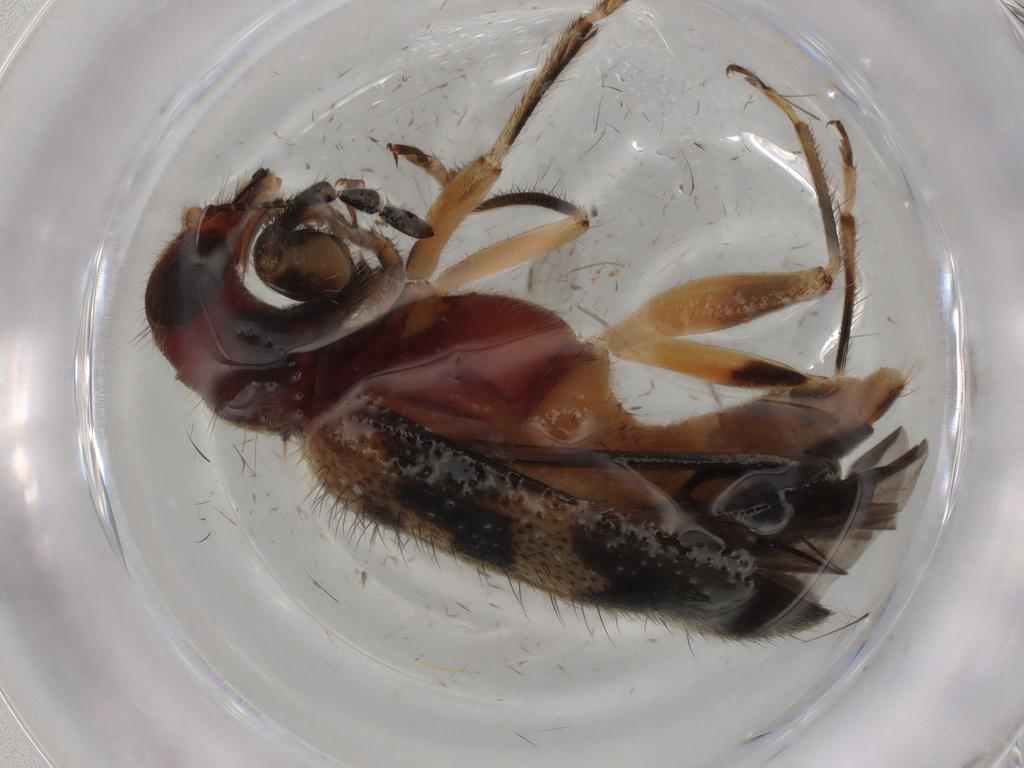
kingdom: Animalia
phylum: Arthropoda
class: Insecta
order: Coleoptera
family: Cleridae
